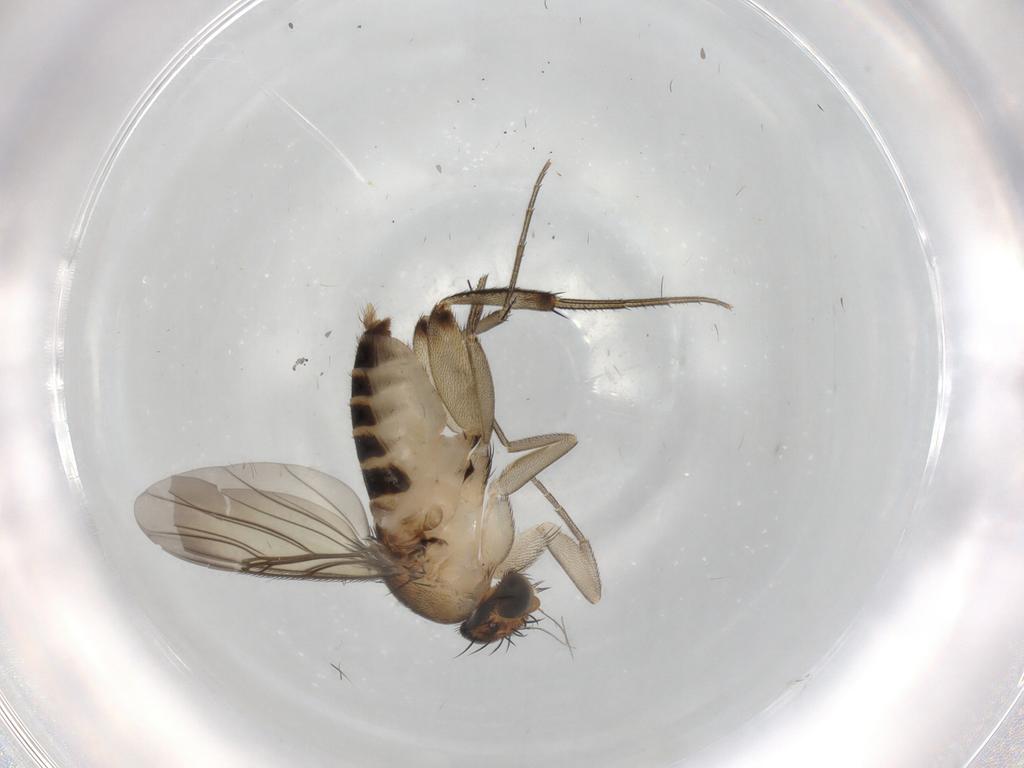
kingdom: Animalia
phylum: Arthropoda
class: Insecta
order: Diptera
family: Phoridae
